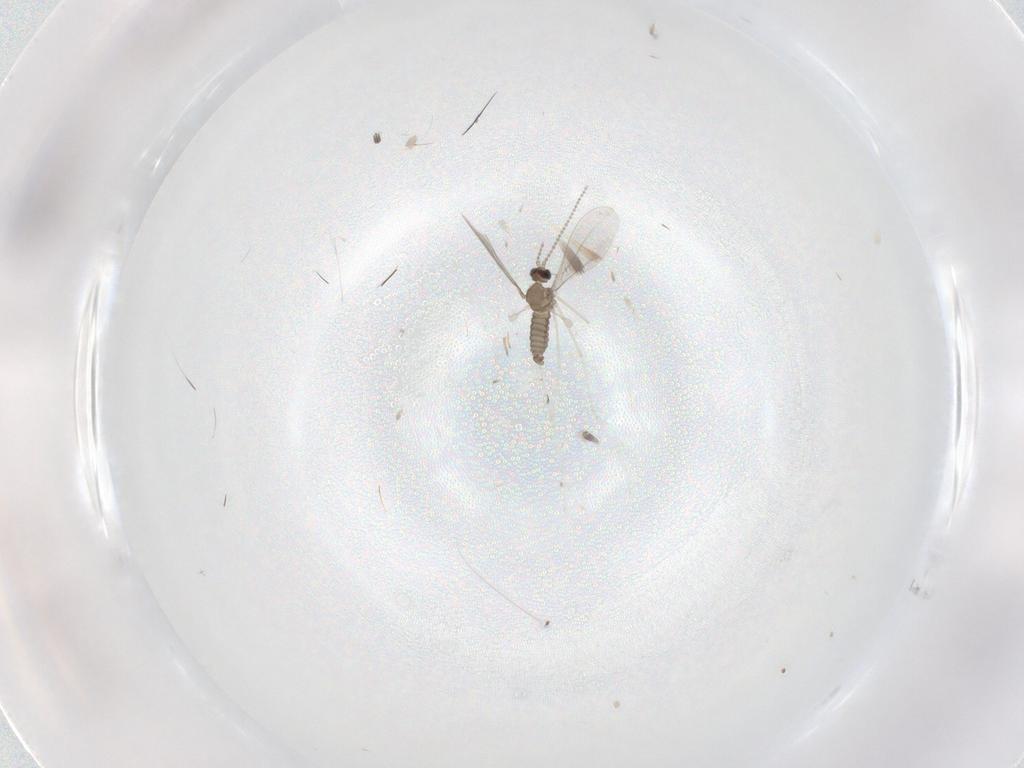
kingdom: Animalia
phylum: Arthropoda
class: Insecta
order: Diptera
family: Cecidomyiidae
